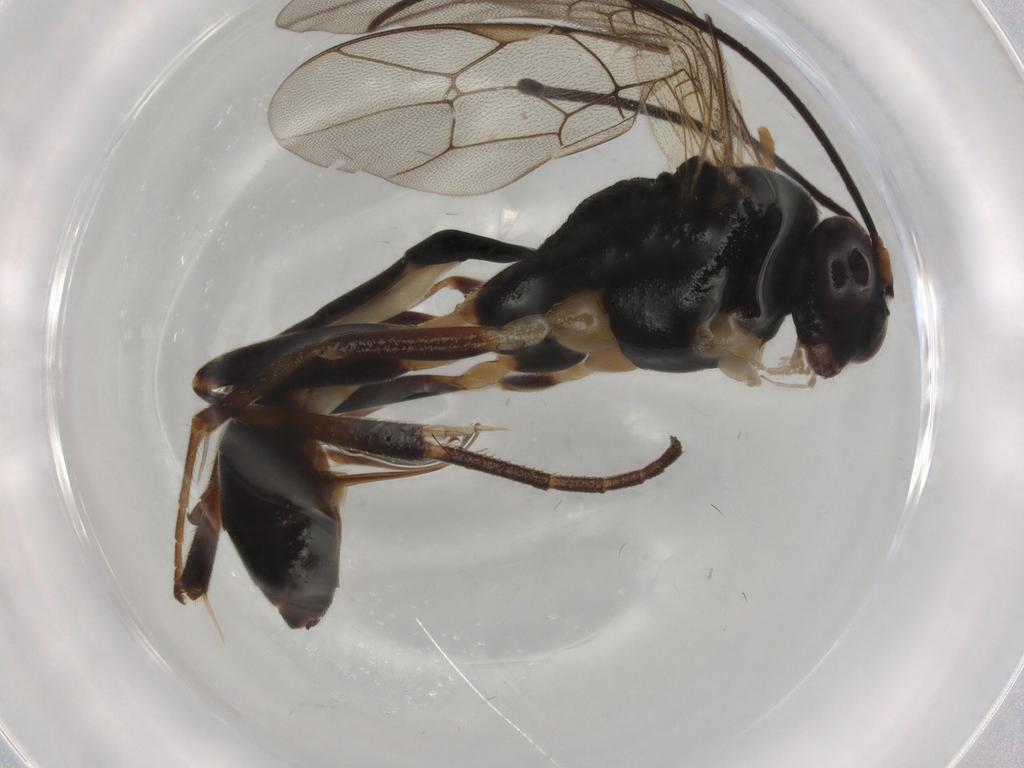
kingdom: Animalia
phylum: Arthropoda
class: Insecta
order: Hymenoptera
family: Ichneumonidae
